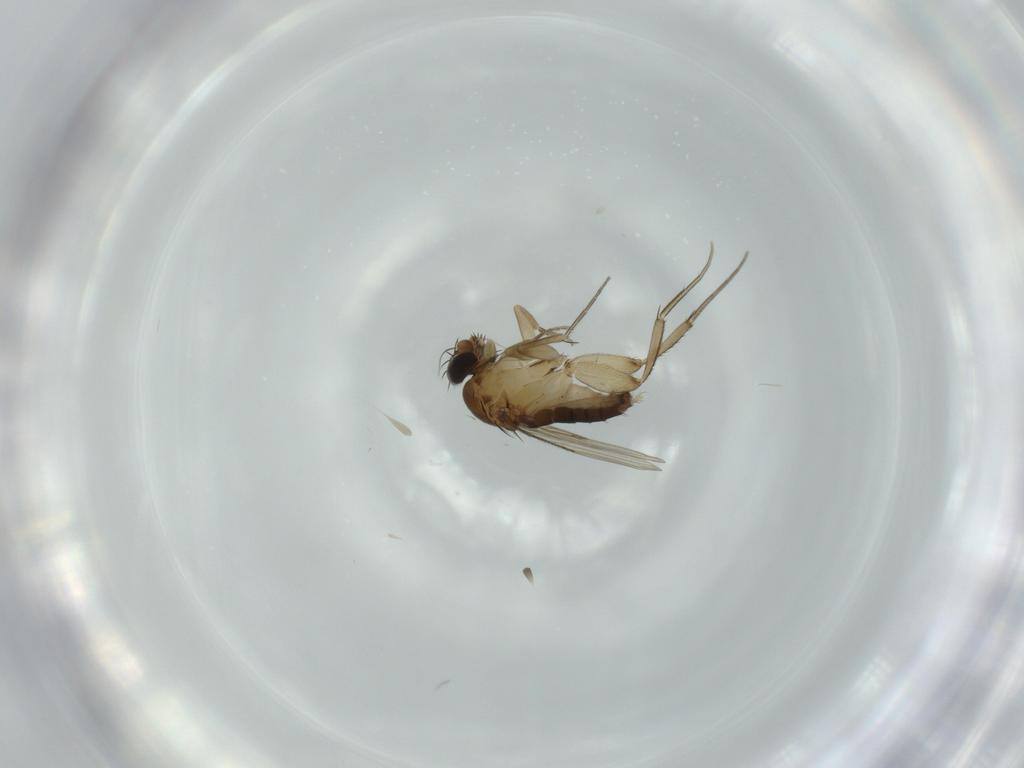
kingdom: Animalia
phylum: Arthropoda
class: Insecta
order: Diptera
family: Phoridae
